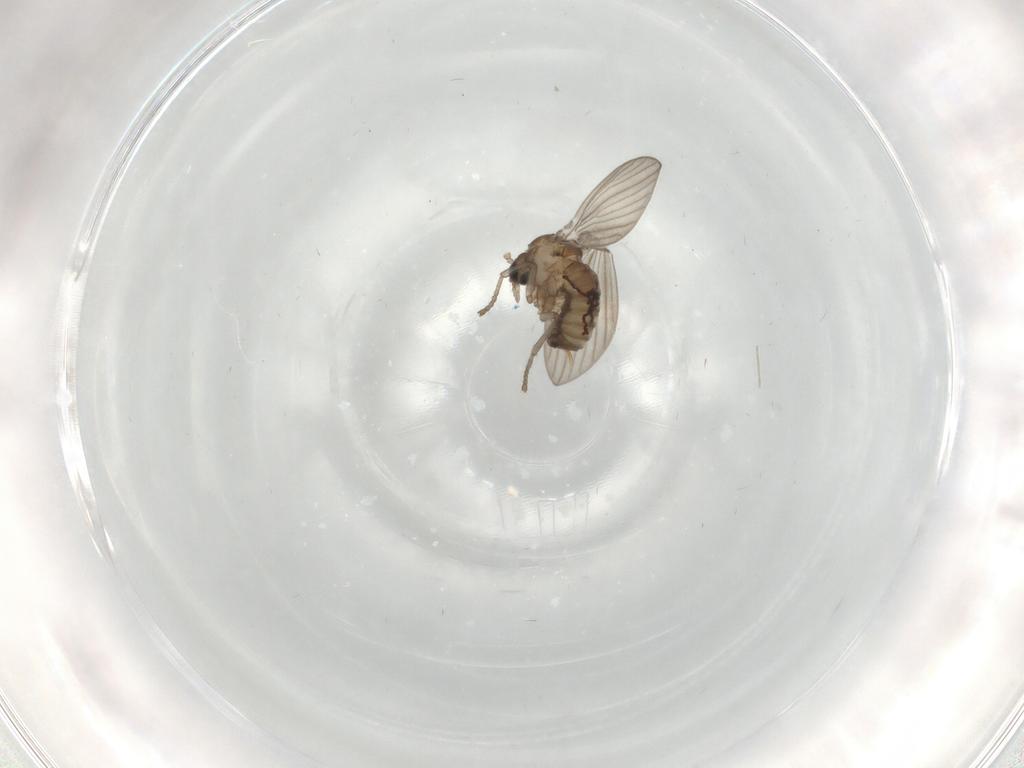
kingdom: Animalia
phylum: Arthropoda
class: Insecta
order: Diptera
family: Psychodidae
